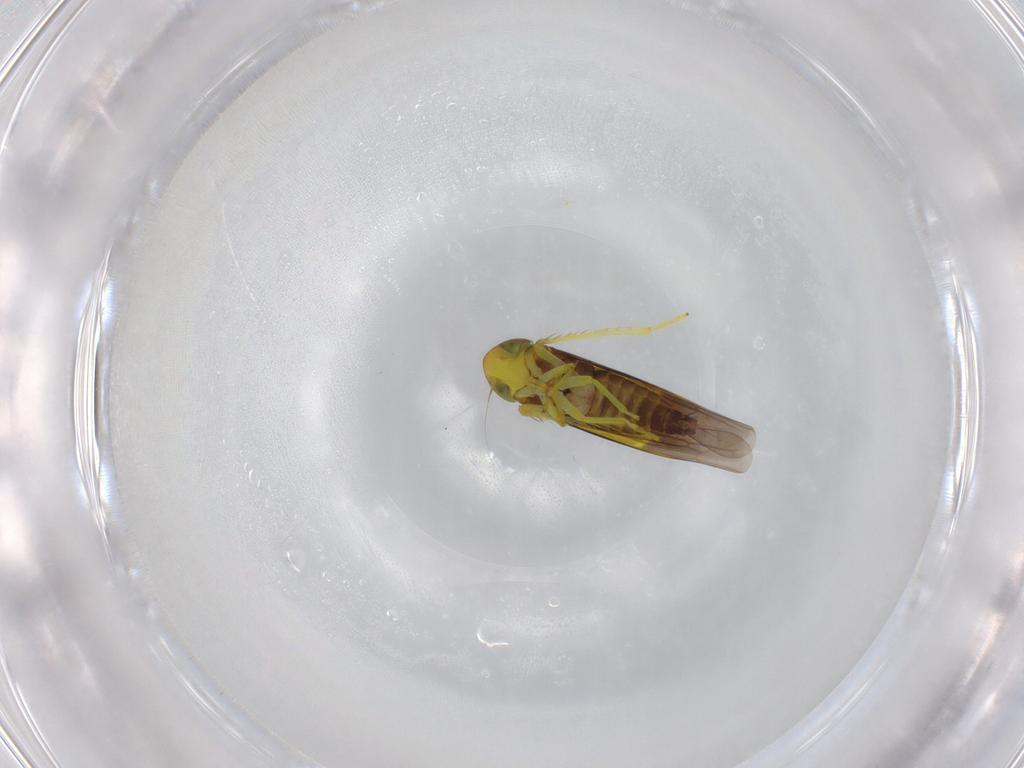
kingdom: Animalia
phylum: Arthropoda
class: Insecta
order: Hemiptera
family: Cicadellidae
